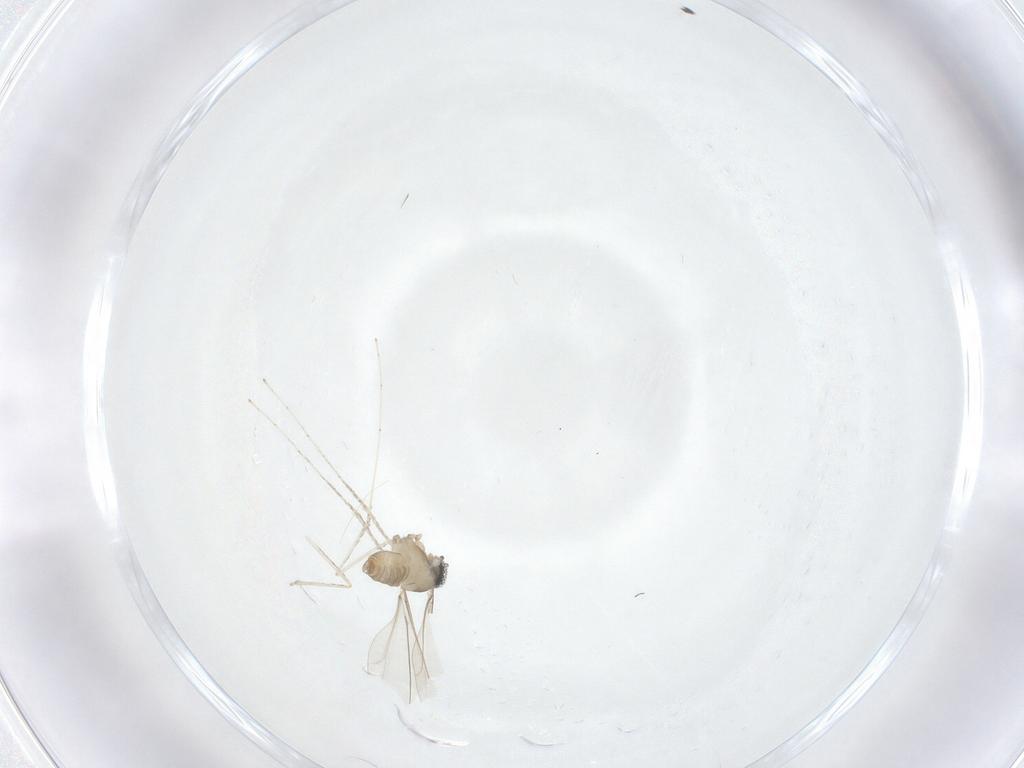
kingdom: Animalia
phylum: Arthropoda
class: Insecta
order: Diptera
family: Cecidomyiidae
